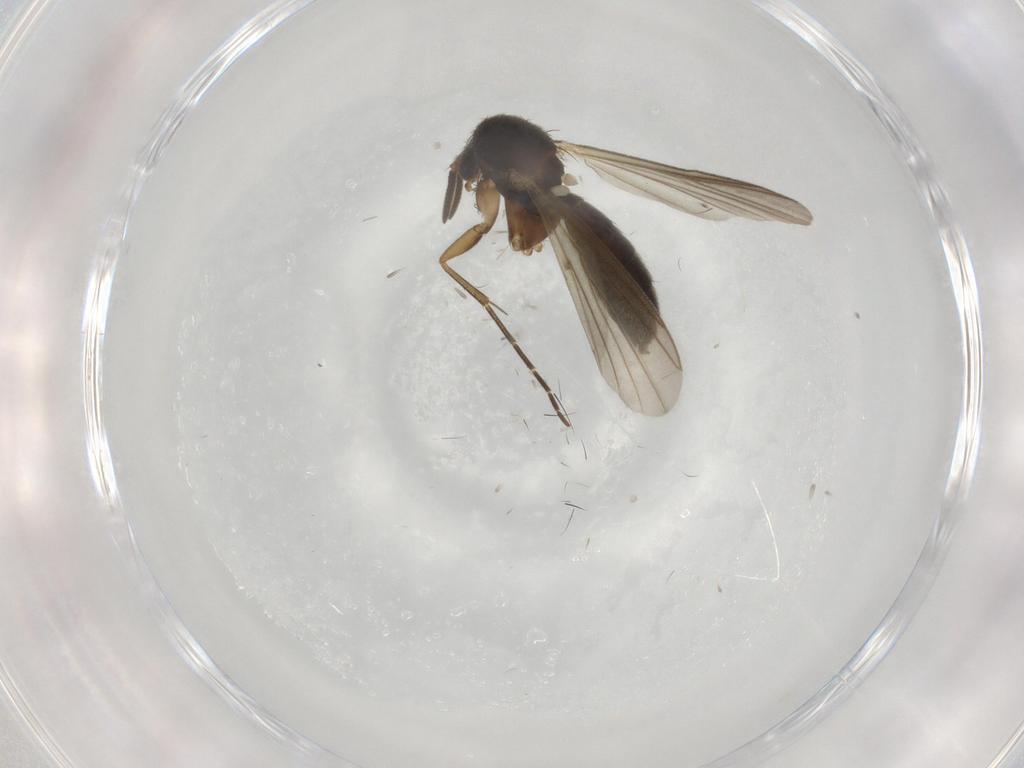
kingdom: Animalia
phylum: Arthropoda
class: Insecta
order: Diptera
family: Mycetophilidae
